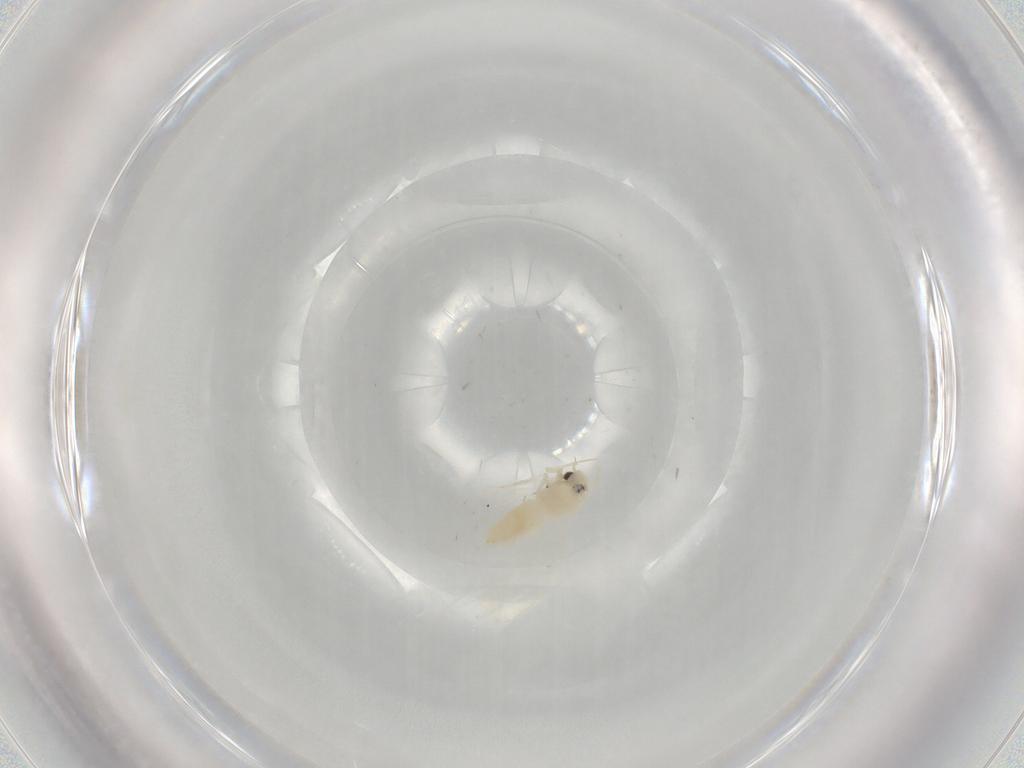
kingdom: Animalia
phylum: Arthropoda
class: Insecta
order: Hemiptera
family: Aleyrodidae
